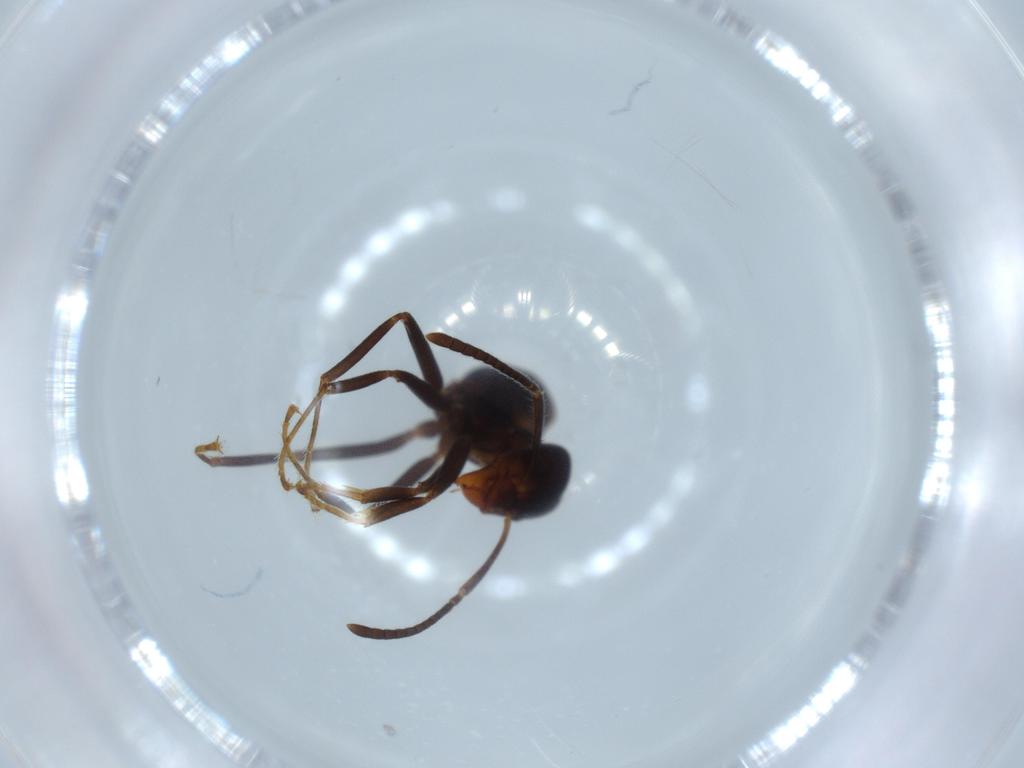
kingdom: Animalia
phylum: Arthropoda
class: Insecta
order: Hymenoptera
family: Formicidae
